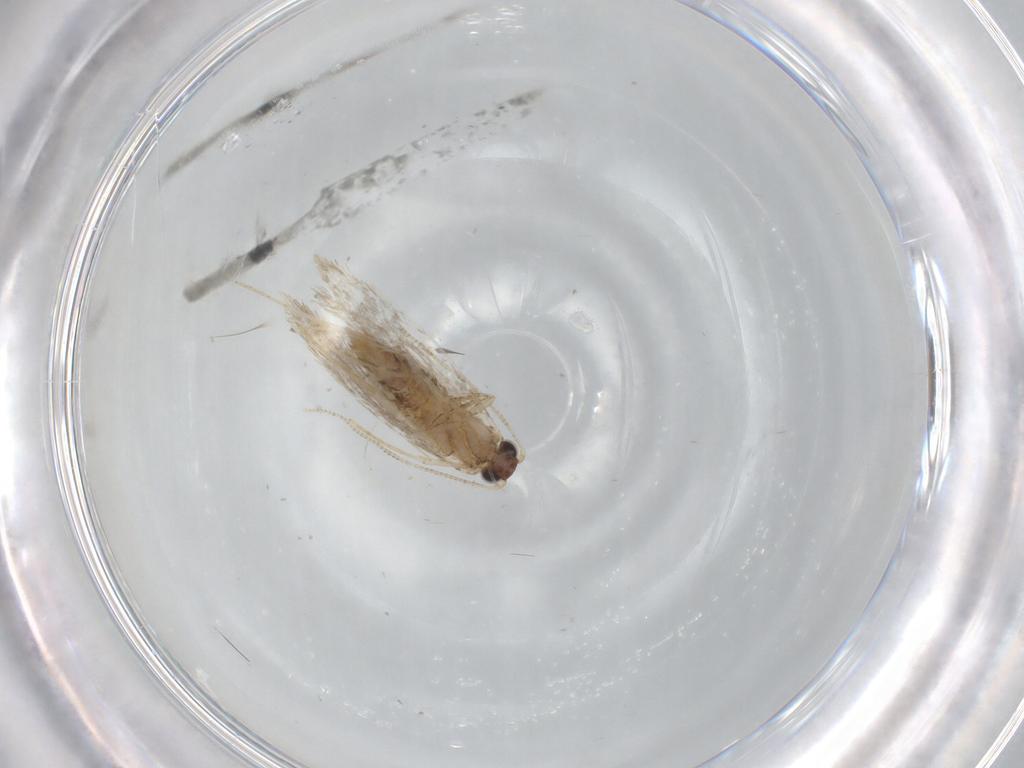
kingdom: Animalia
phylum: Arthropoda
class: Insecta
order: Lepidoptera
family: Tineidae
